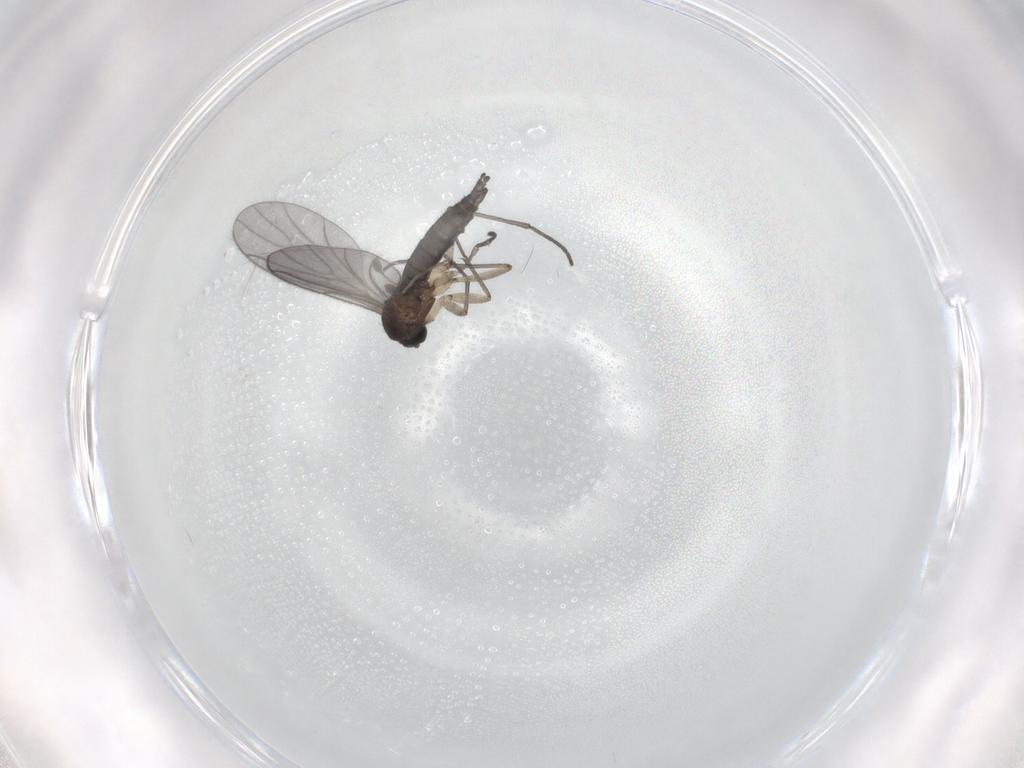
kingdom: Animalia
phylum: Arthropoda
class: Insecta
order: Diptera
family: Sciaridae
